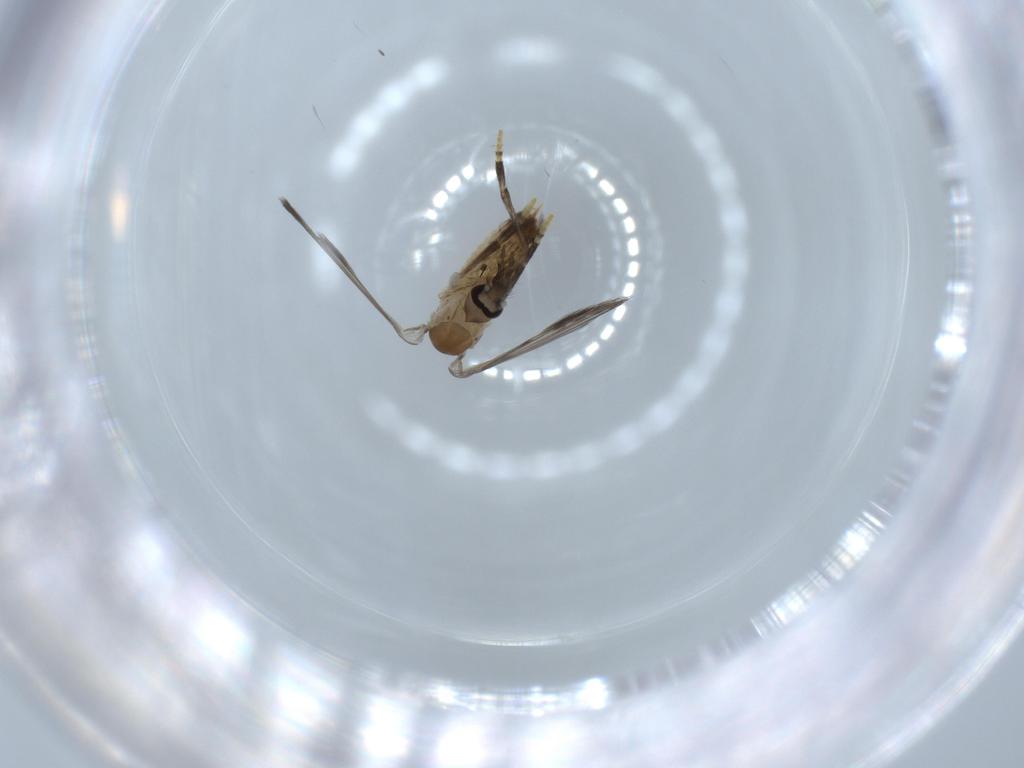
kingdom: Animalia
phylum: Arthropoda
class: Insecta
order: Diptera
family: Psychodidae
